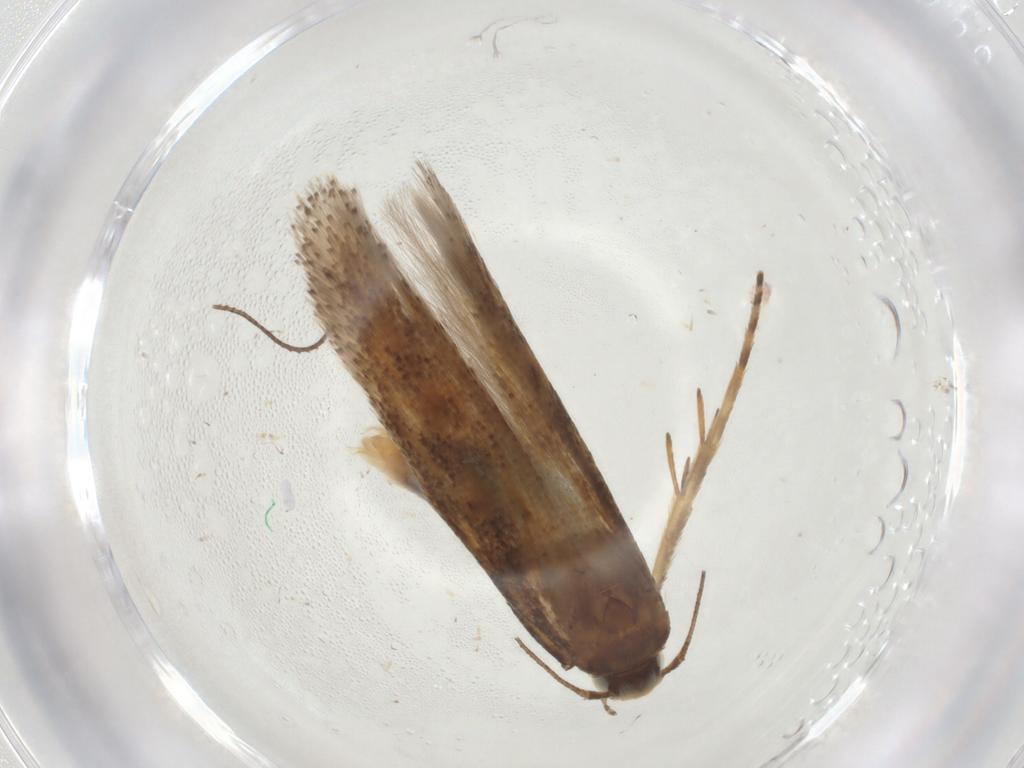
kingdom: Animalia
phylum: Arthropoda
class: Insecta
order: Lepidoptera
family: Gelechiidae
